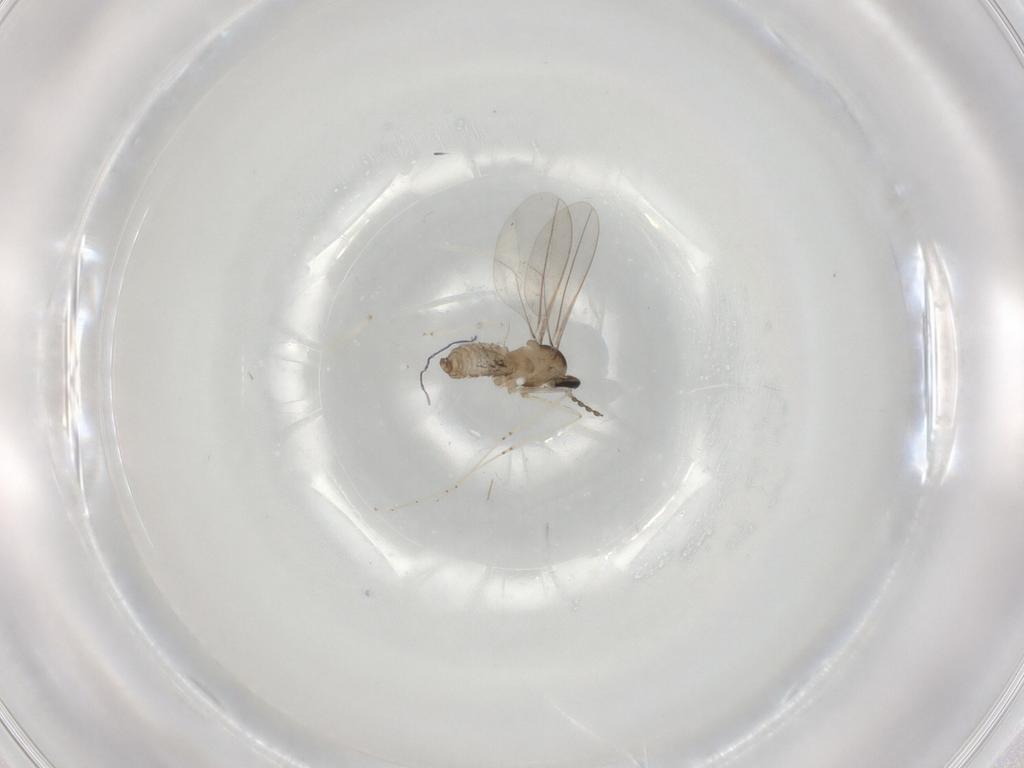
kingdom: Animalia
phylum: Arthropoda
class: Insecta
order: Diptera
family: Cecidomyiidae
